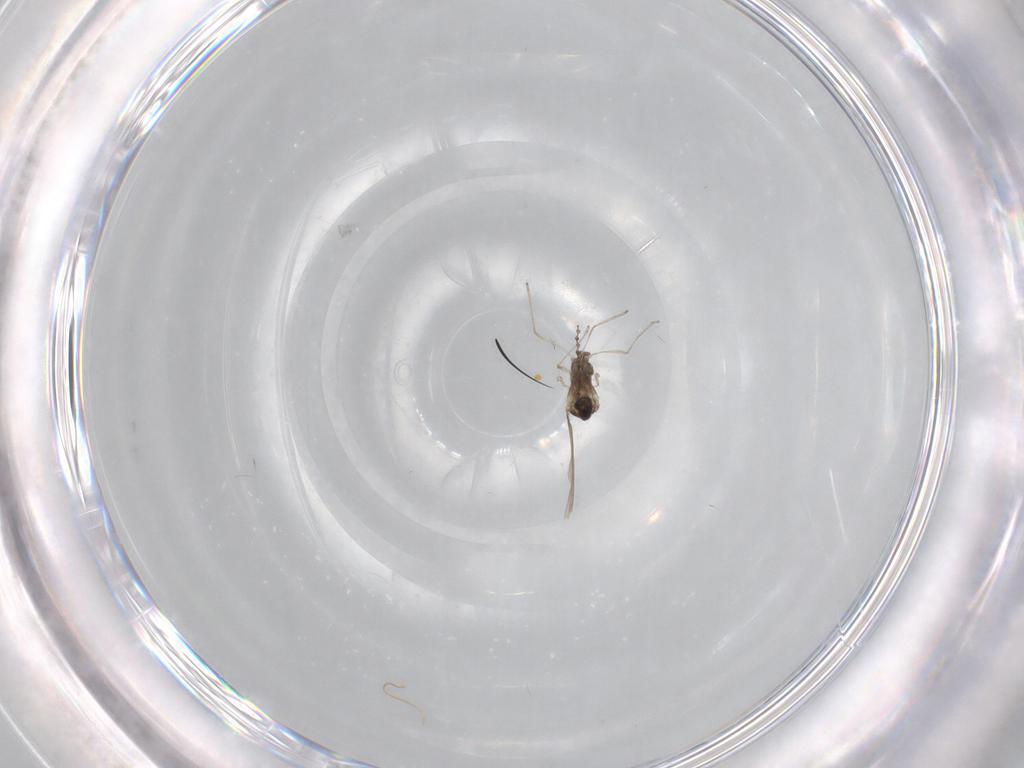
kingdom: Animalia
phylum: Arthropoda
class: Insecta
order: Diptera
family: Cecidomyiidae
